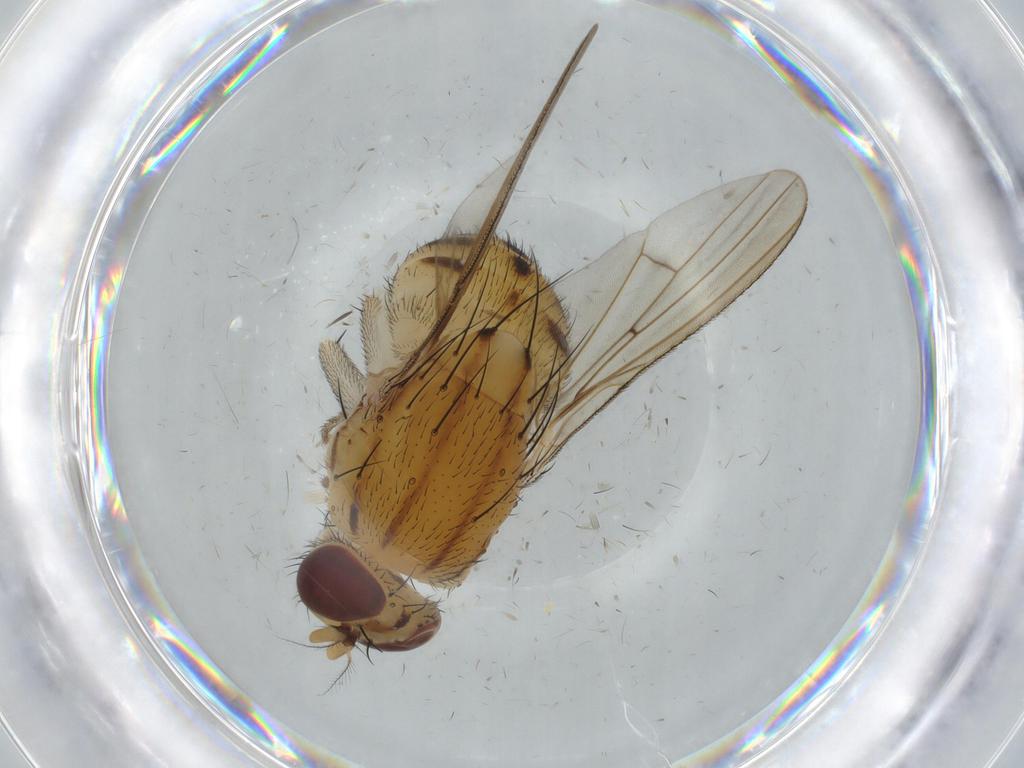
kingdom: Animalia
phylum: Arthropoda
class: Insecta
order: Diptera
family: Lauxaniidae
